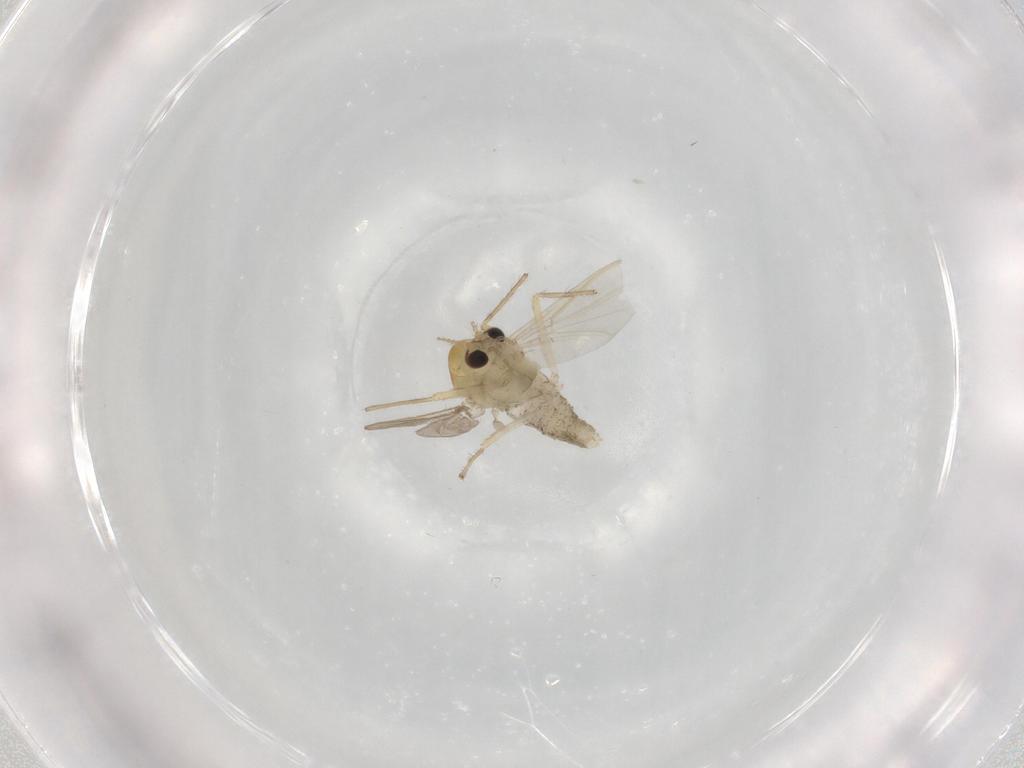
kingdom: Animalia
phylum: Arthropoda
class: Insecta
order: Diptera
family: Chironomidae
